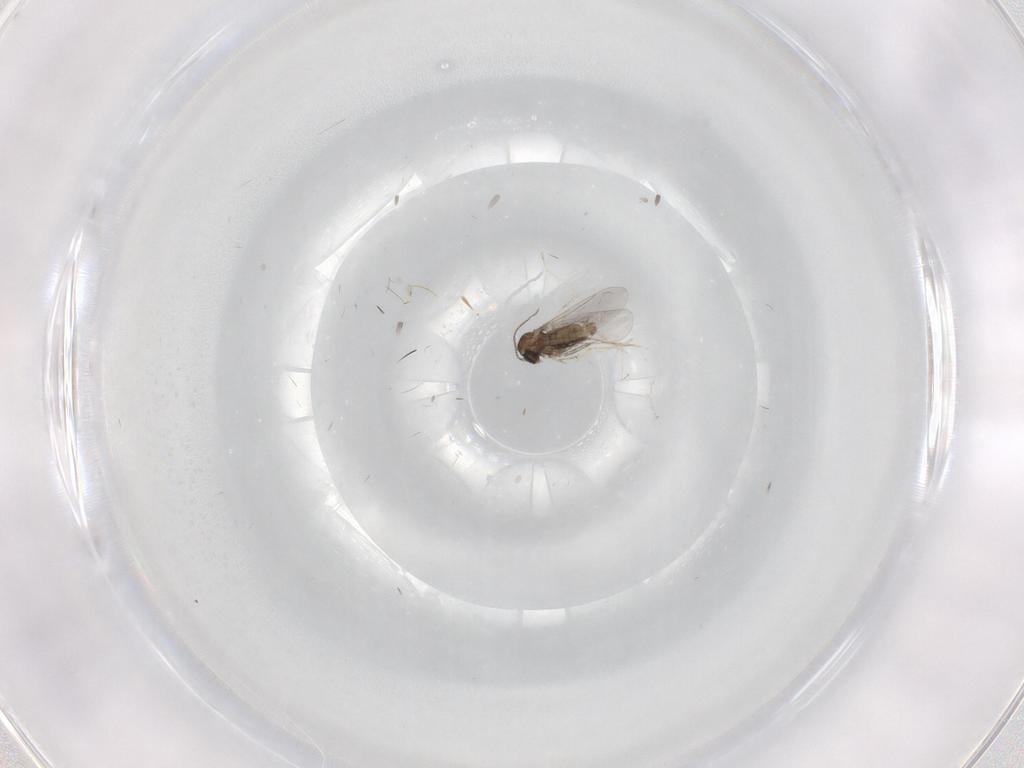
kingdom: Animalia
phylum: Arthropoda
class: Insecta
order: Diptera
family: Cecidomyiidae
